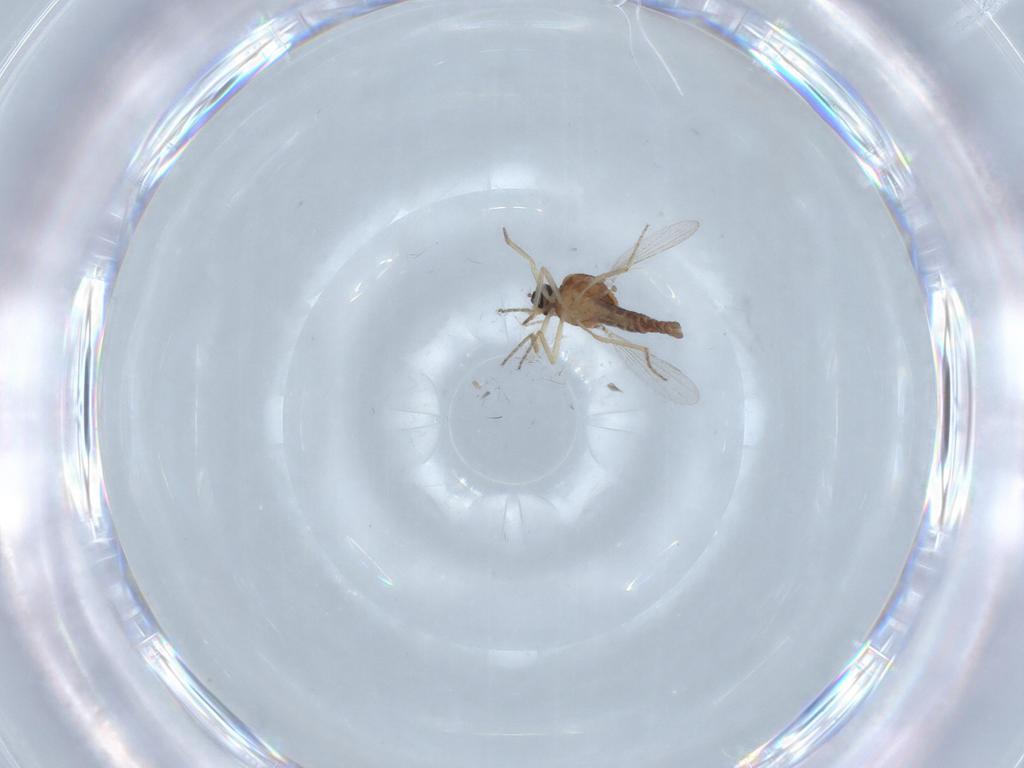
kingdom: Animalia
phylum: Arthropoda
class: Insecta
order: Diptera
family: Ceratopogonidae
